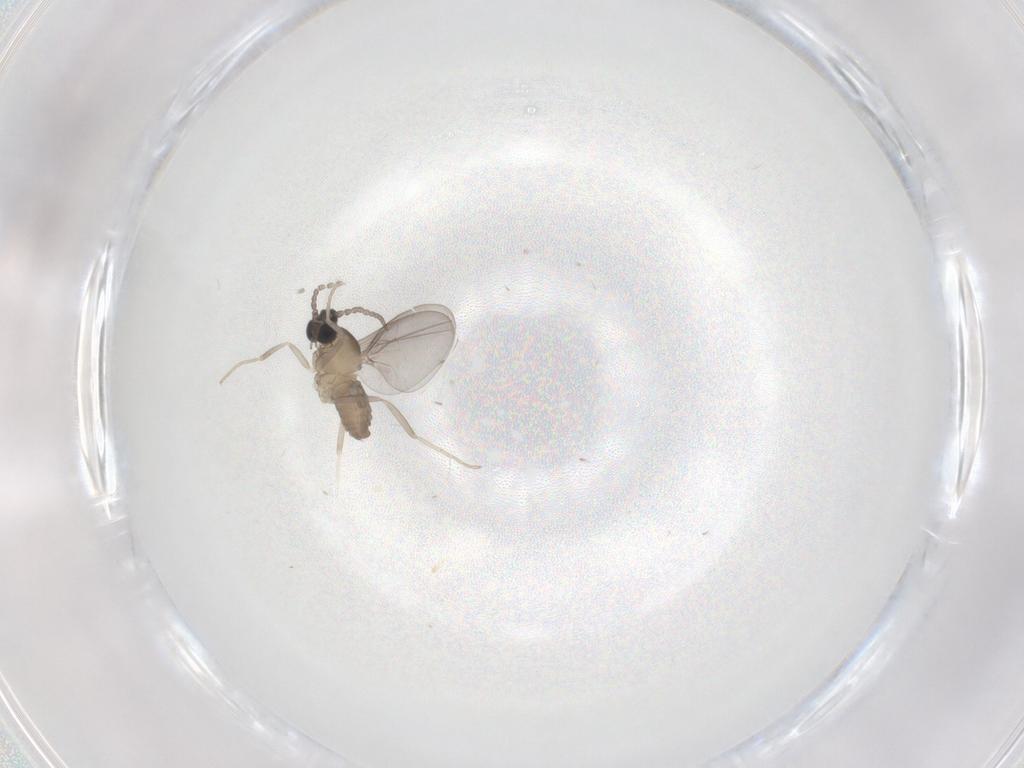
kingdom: Animalia
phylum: Arthropoda
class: Insecta
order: Diptera
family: Cecidomyiidae
